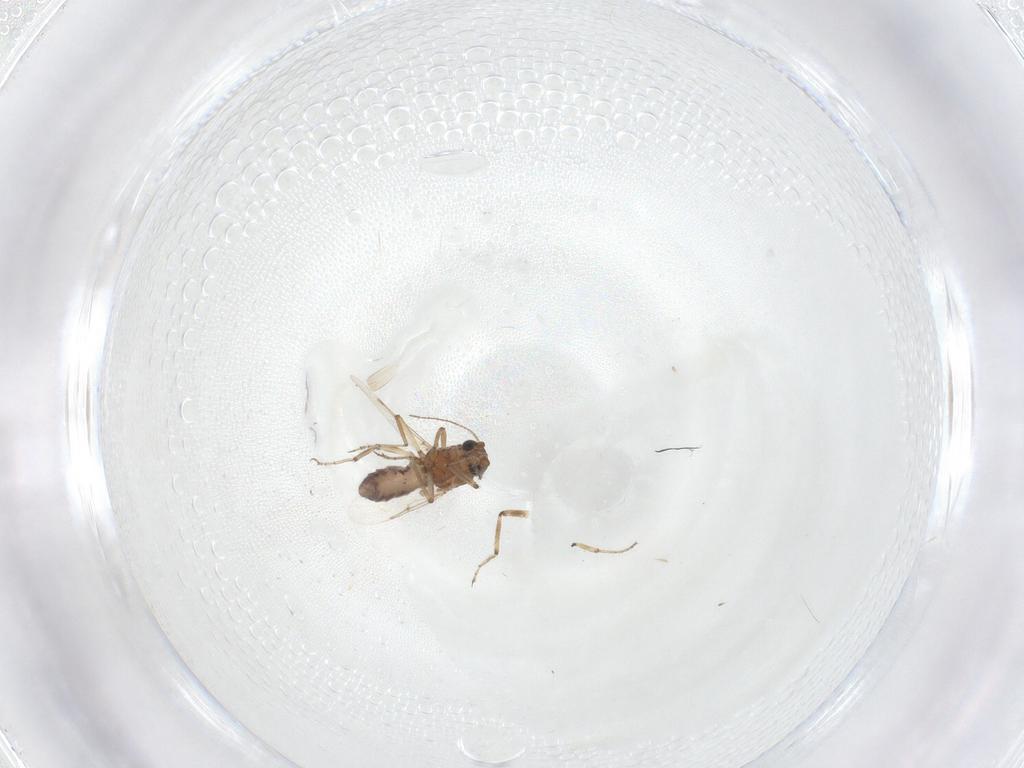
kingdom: Animalia
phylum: Arthropoda
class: Insecta
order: Diptera
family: Ceratopogonidae
